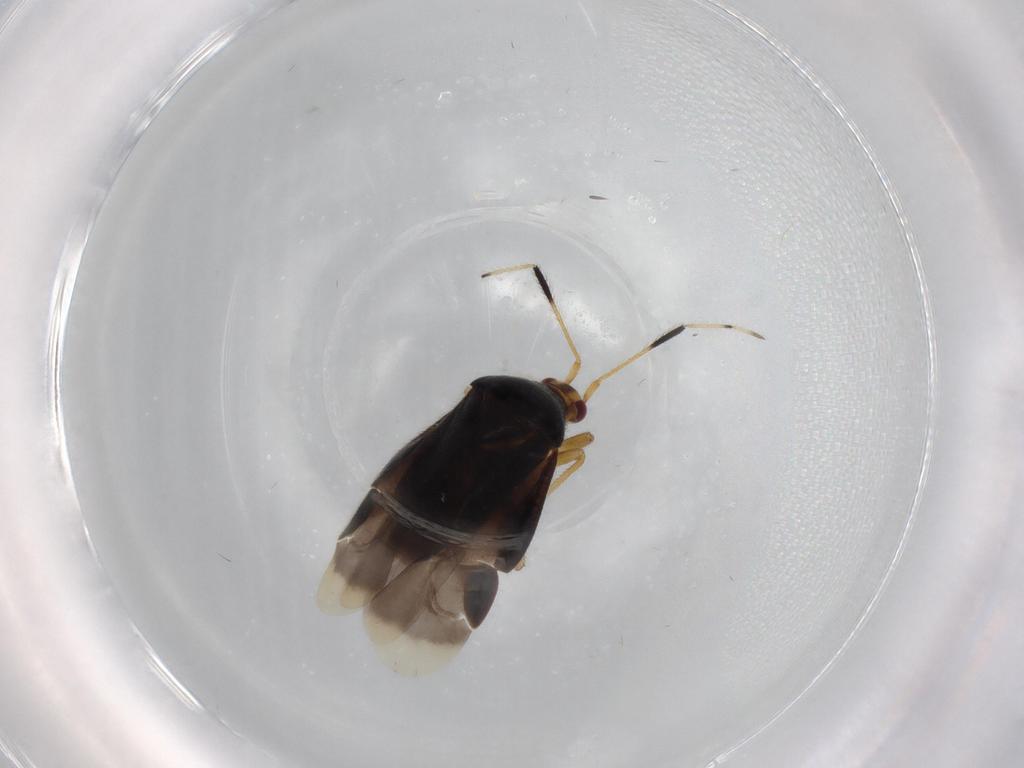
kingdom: Animalia
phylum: Arthropoda
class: Insecta
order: Hemiptera
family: Miridae
